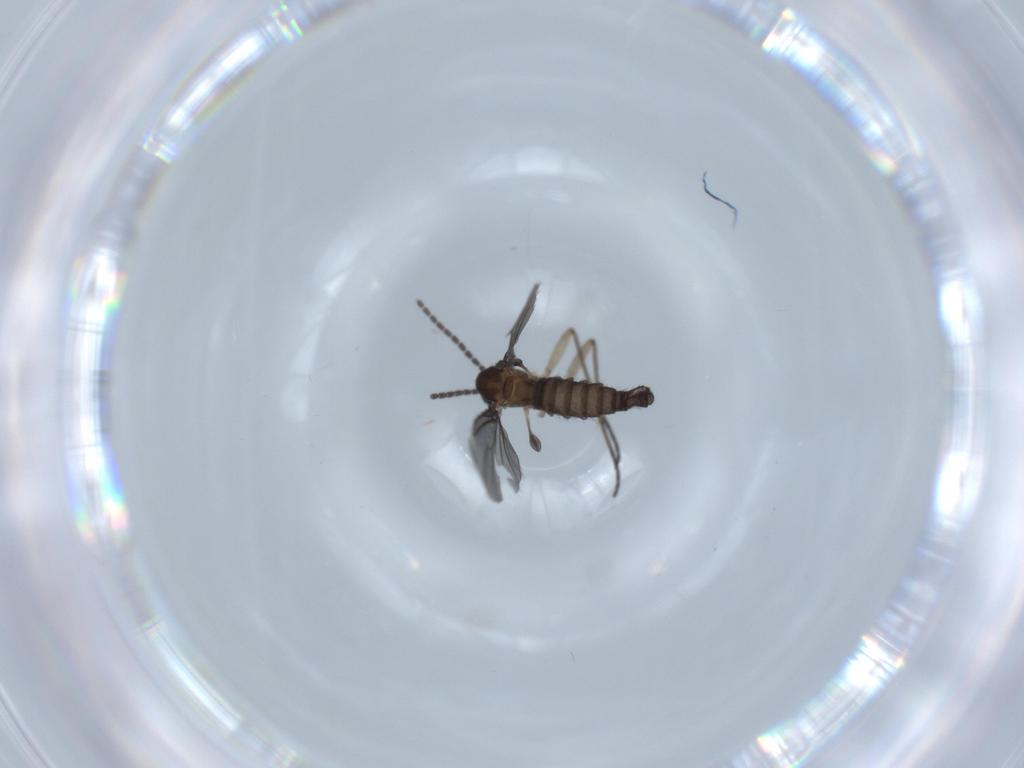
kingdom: Animalia
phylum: Arthropoda
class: Insecta
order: Diptera
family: Sciaridae
